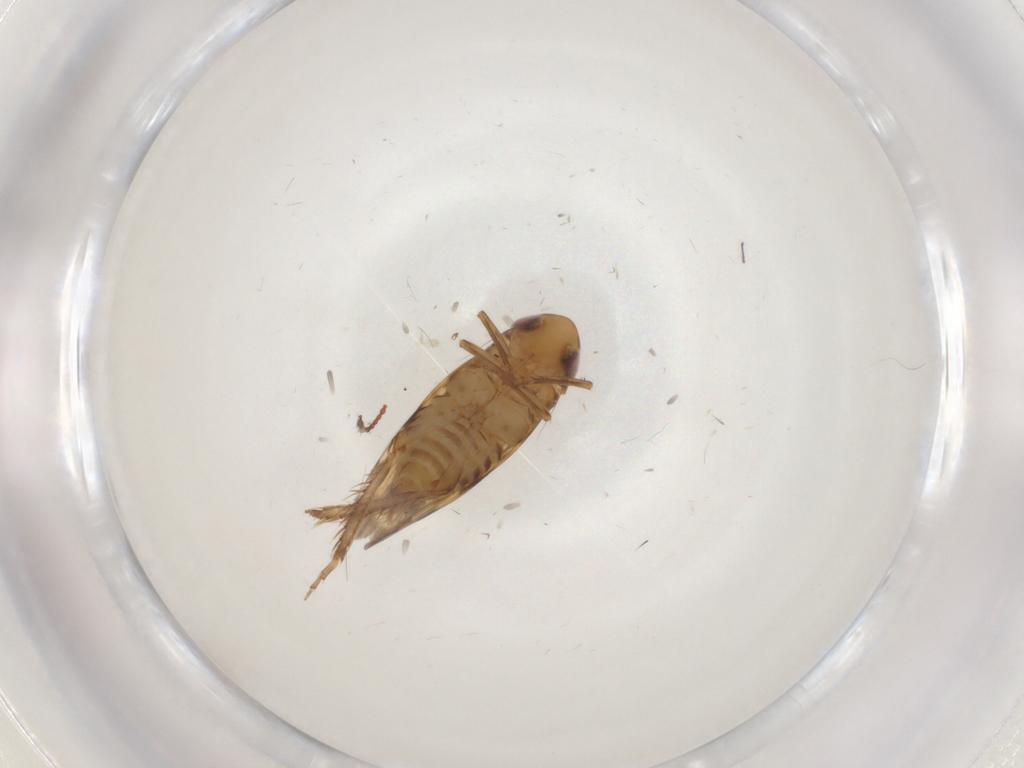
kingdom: Animalia
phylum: Arthropoda
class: Insecta
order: Hemiptera
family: Cicadellidae
